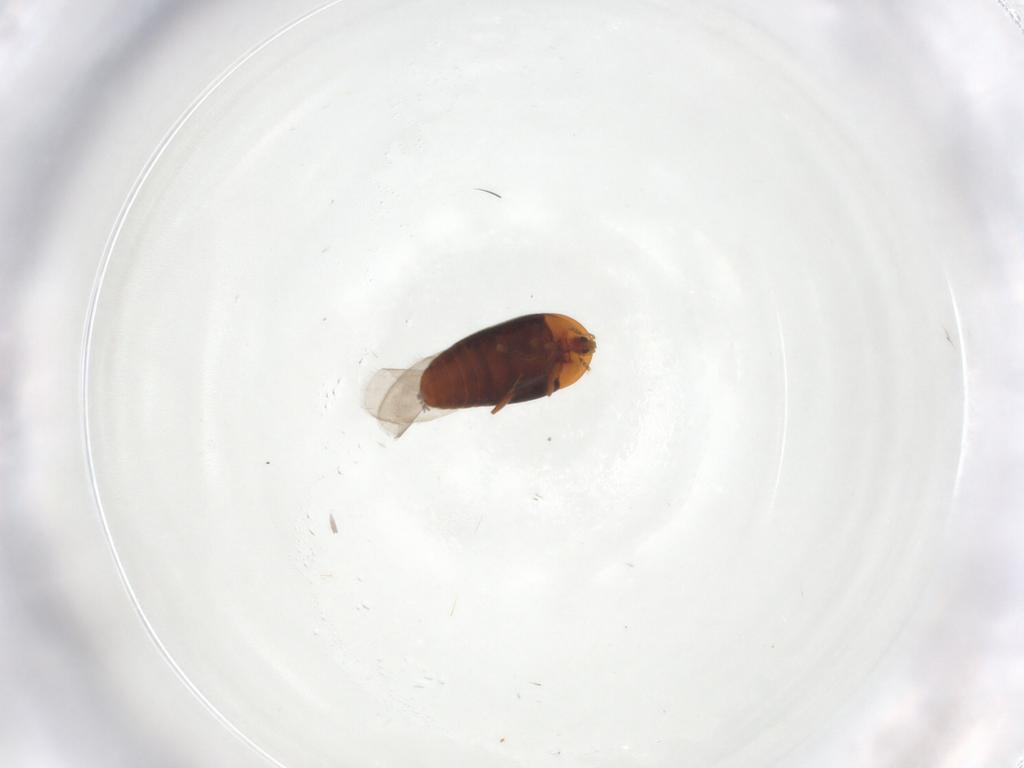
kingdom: Animalia
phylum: Arthropoda
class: Insecta
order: Coleoptera
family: Corylophidae
